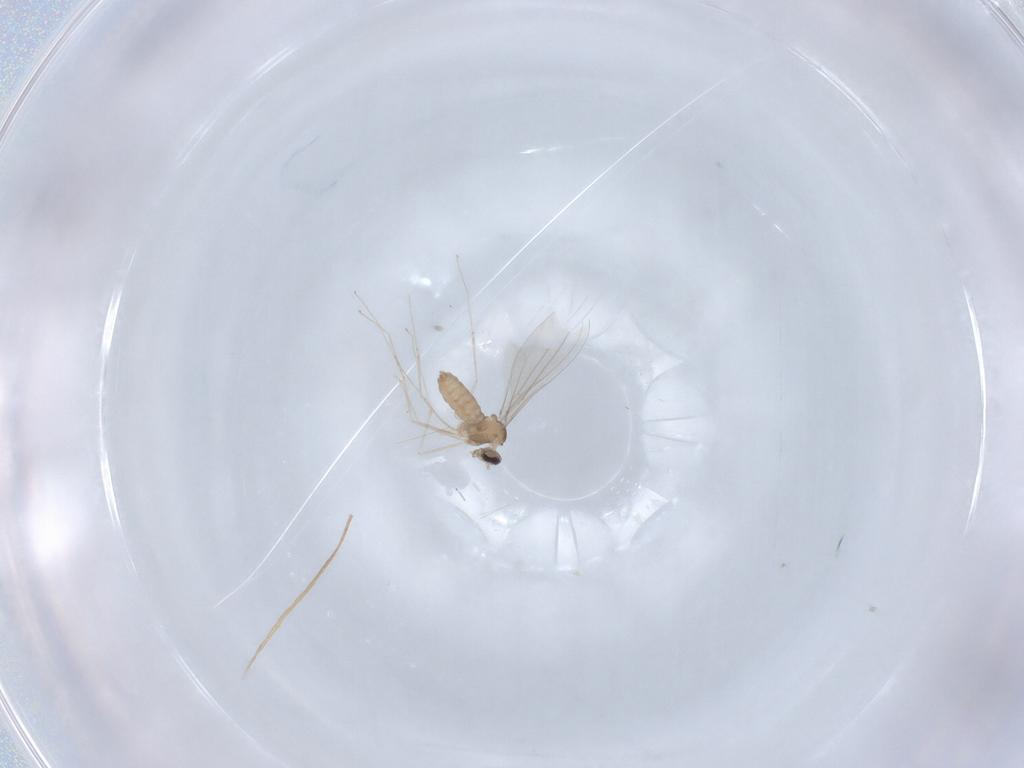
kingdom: Animalia
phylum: Arthropoda
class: Insecta
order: Diptera
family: Cecidomyiidae
